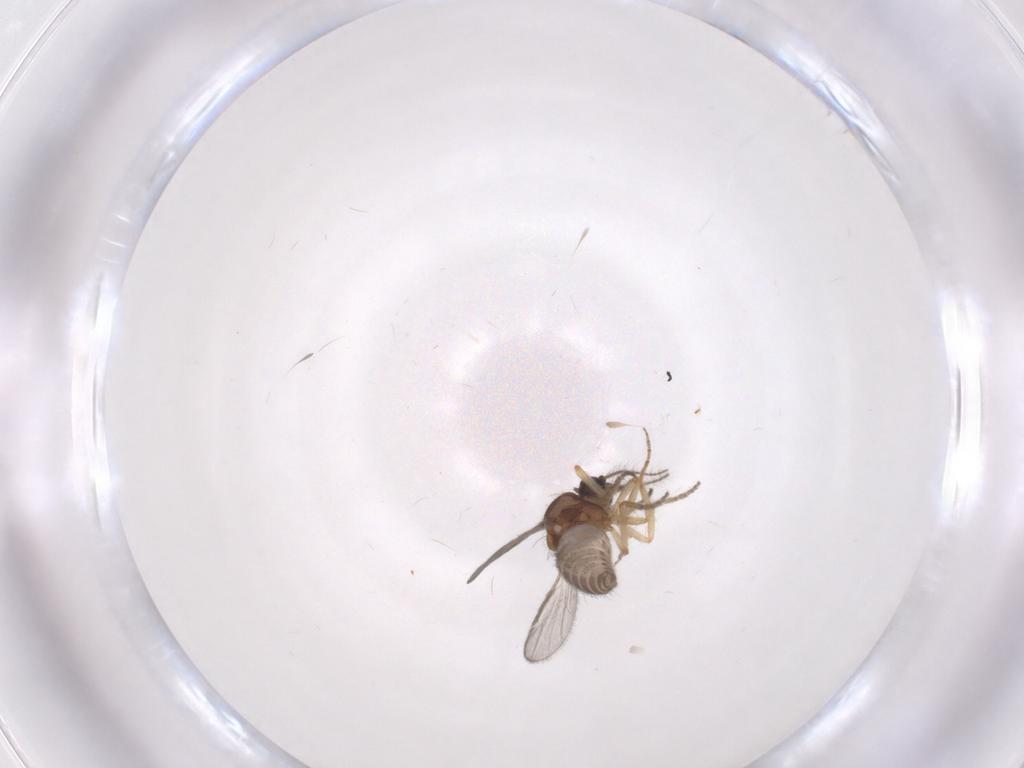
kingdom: Animalia
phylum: Arthropoda
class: Insecta
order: Diptera
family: Ceratopogonidae
